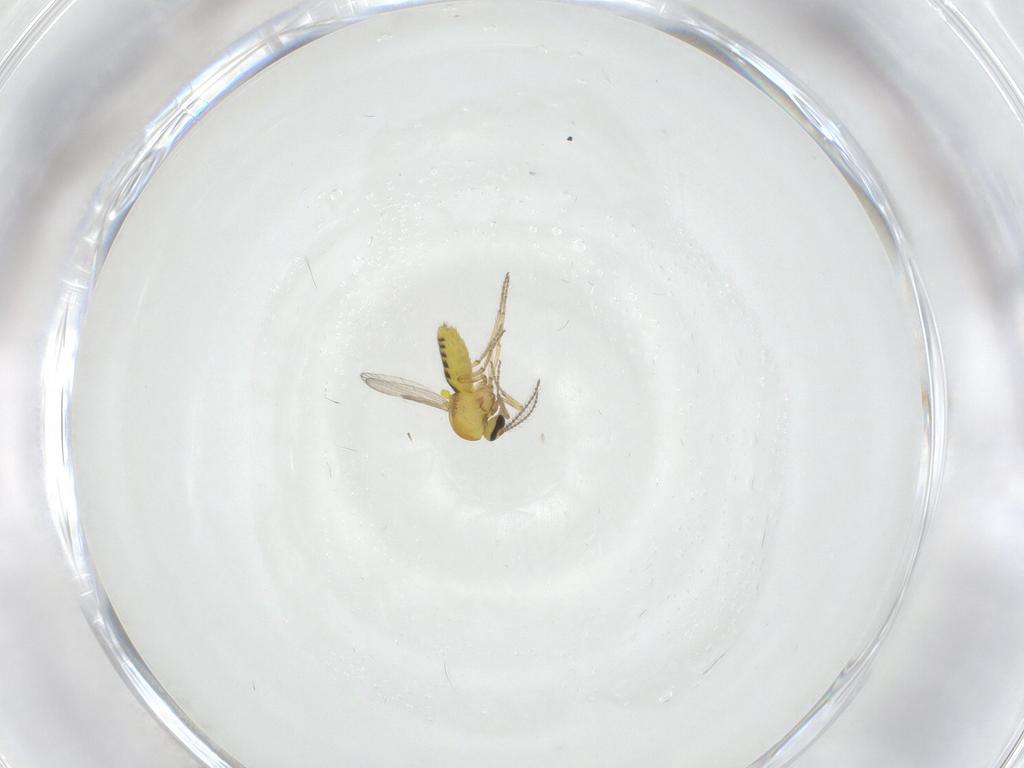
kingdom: Animalia
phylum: Arthropoda
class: Insecta
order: Diptera
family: Ceratopogonidae
